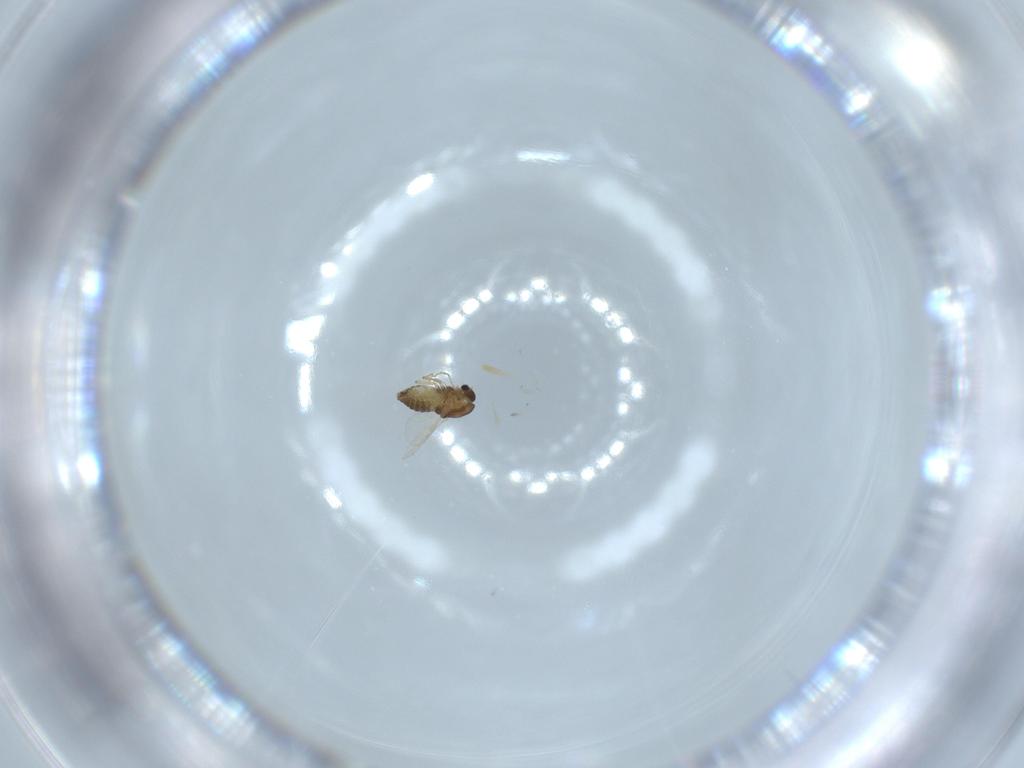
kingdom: Animalia
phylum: Arthropoda
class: Insecta
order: Diptera
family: Chironomidae
